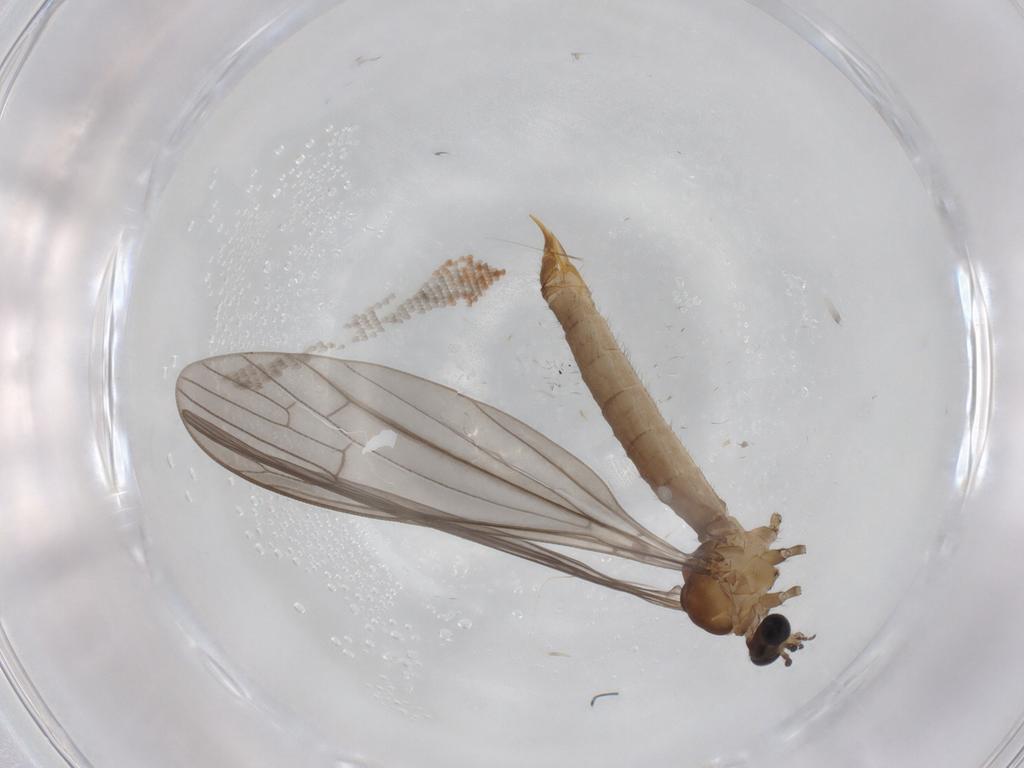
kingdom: Animalia
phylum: Arthropoda
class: Insecta
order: Diptera
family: Limoniidae
